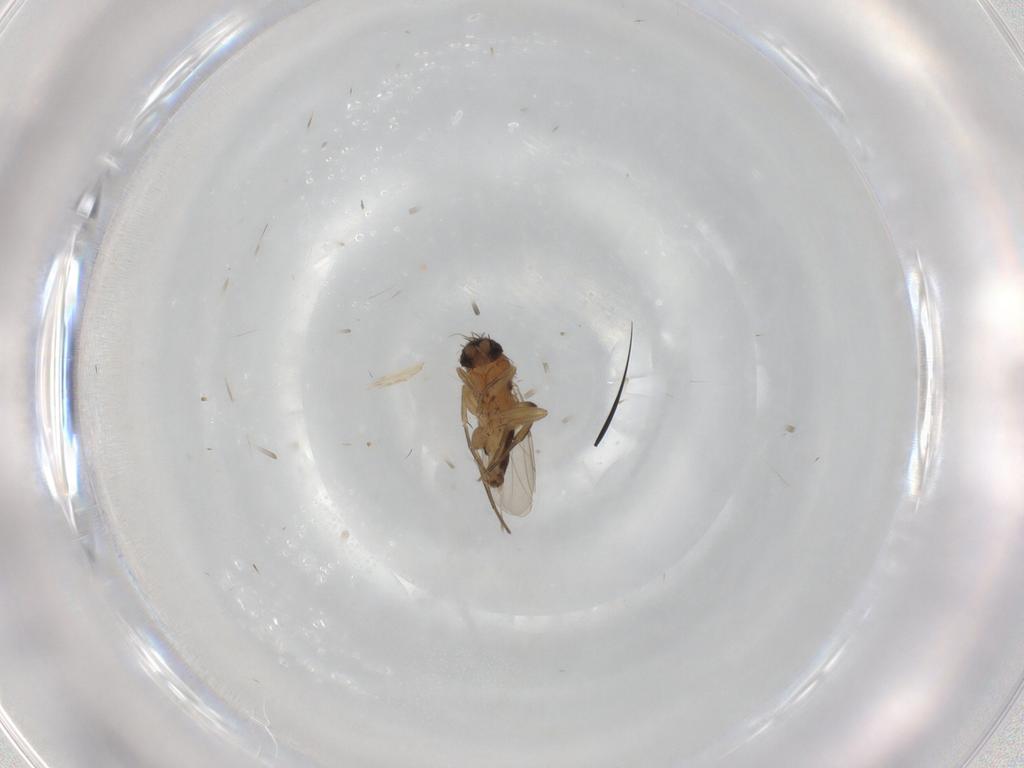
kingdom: Animalia
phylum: Arthropoda
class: Insecta
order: Diptera
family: Phoridae
